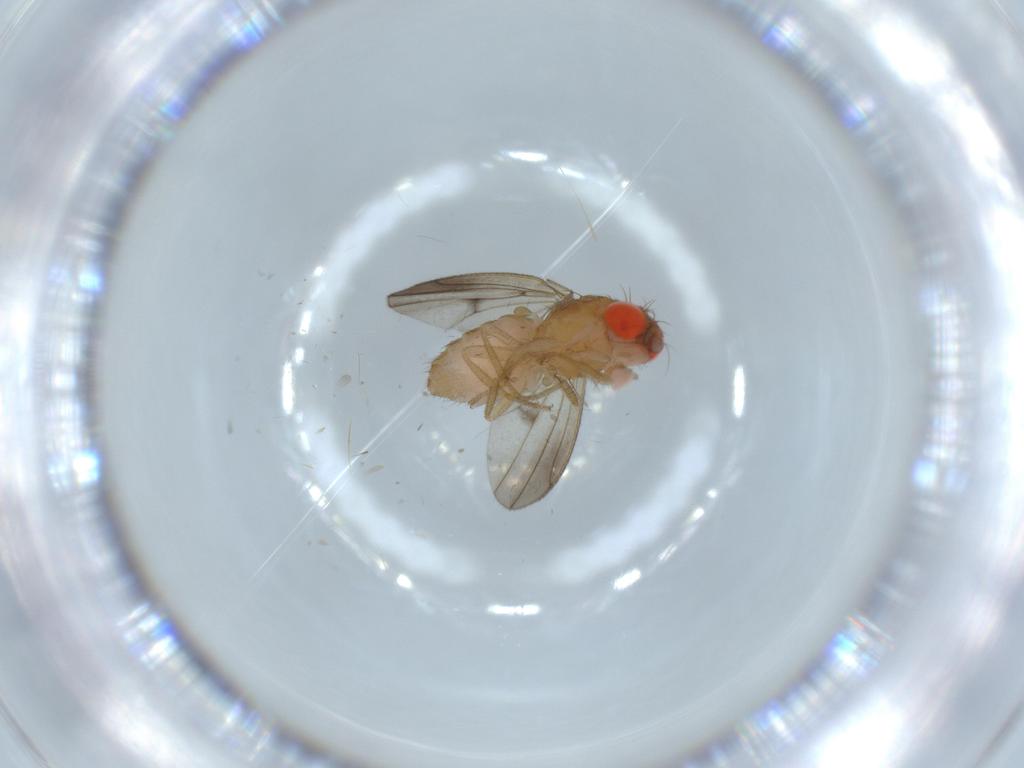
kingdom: Animalia
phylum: Arthropoda
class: Insecta
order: Diptera
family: Drosophilidae
